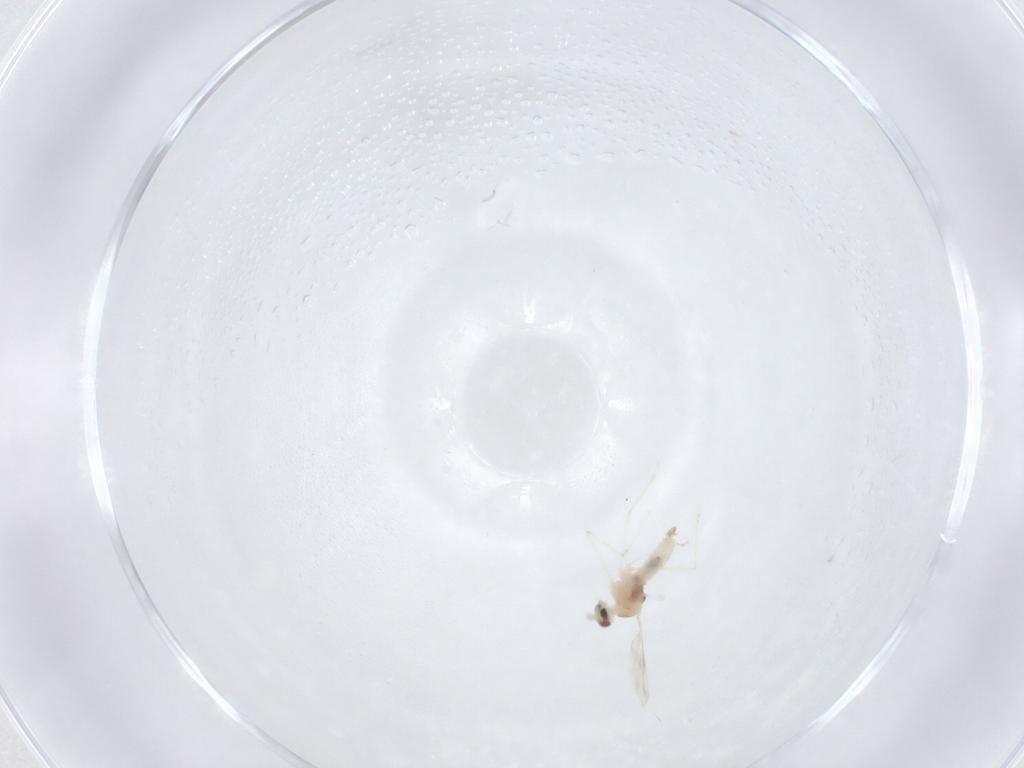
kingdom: Animalia
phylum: Arthropoda
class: Insecta
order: Diptera
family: Cecidomyiidae
